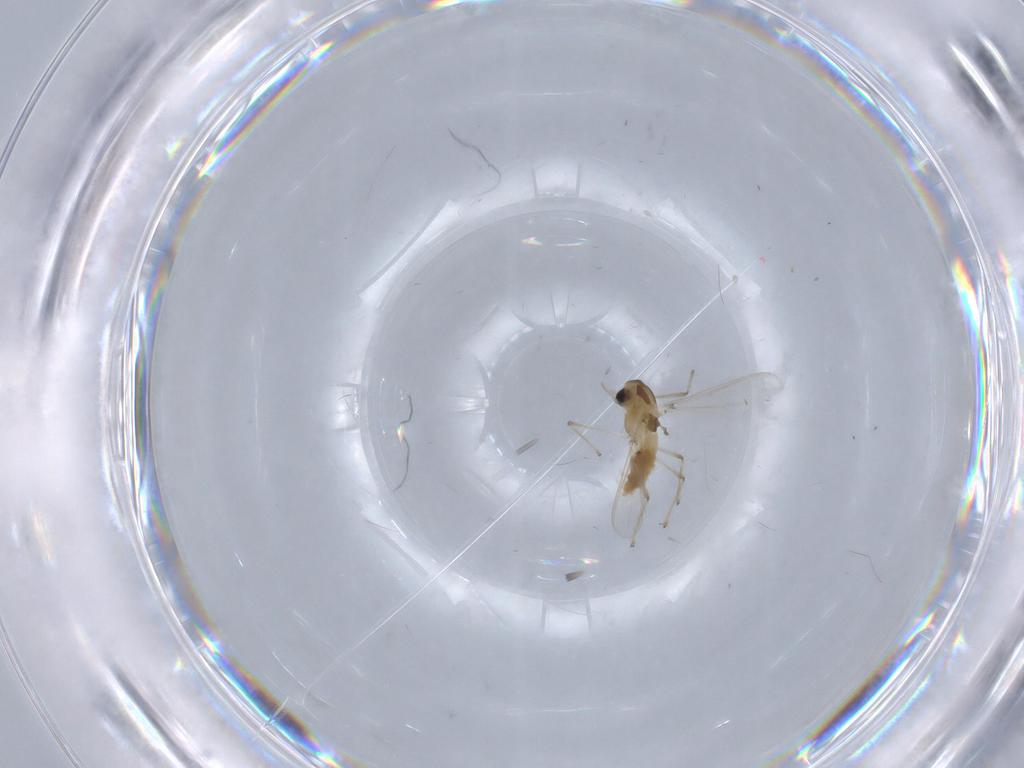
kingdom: Animalia
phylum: Arthropoda
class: Insecta
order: Diptera
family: Chironomidae
